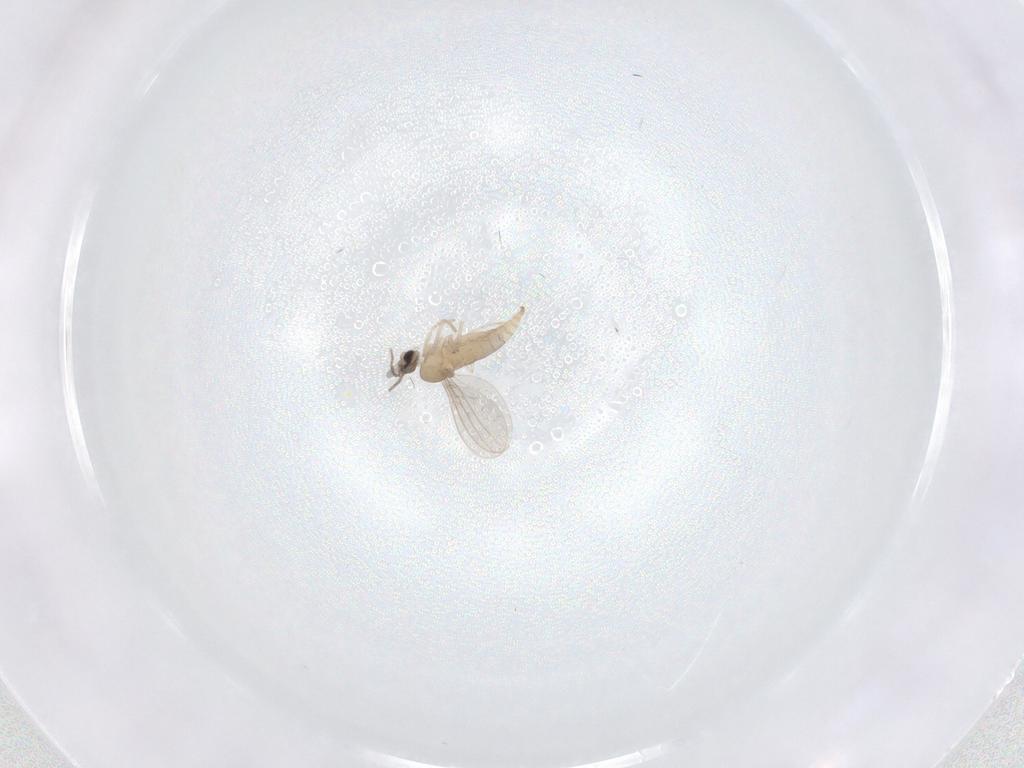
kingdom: Animalia
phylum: Arthropoda
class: Insecta
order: Diptera
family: Cecidomyiidae
